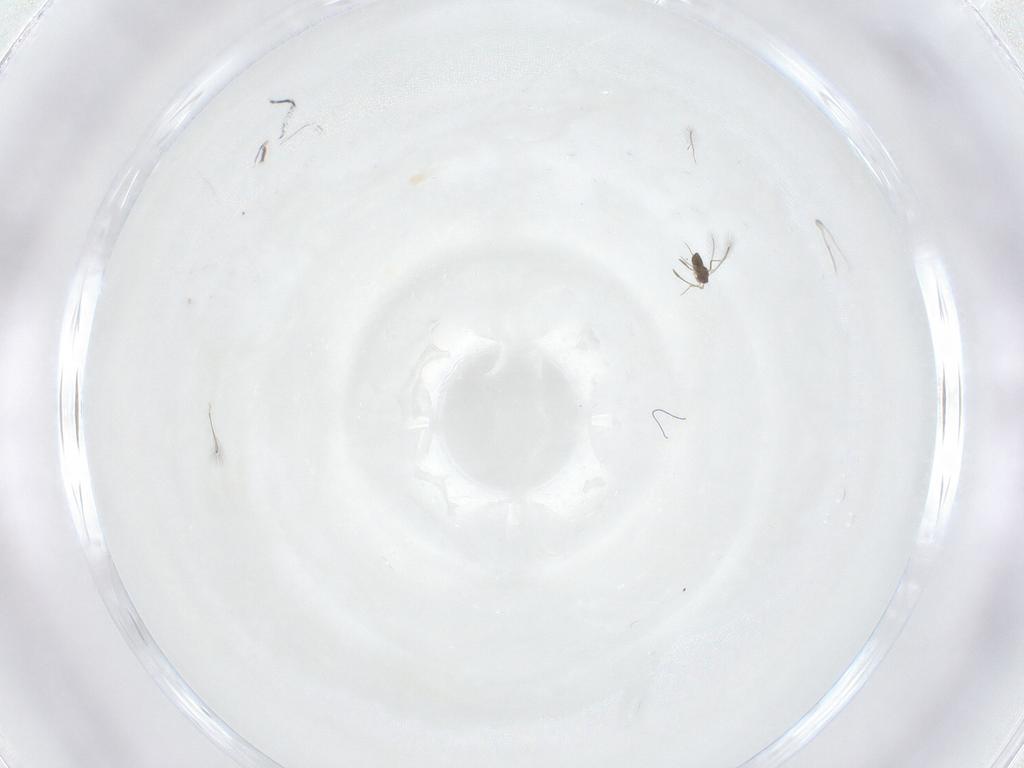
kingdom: Animalia
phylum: Arthropoda
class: Insecta
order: Hymenoptera
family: Mymaridae
